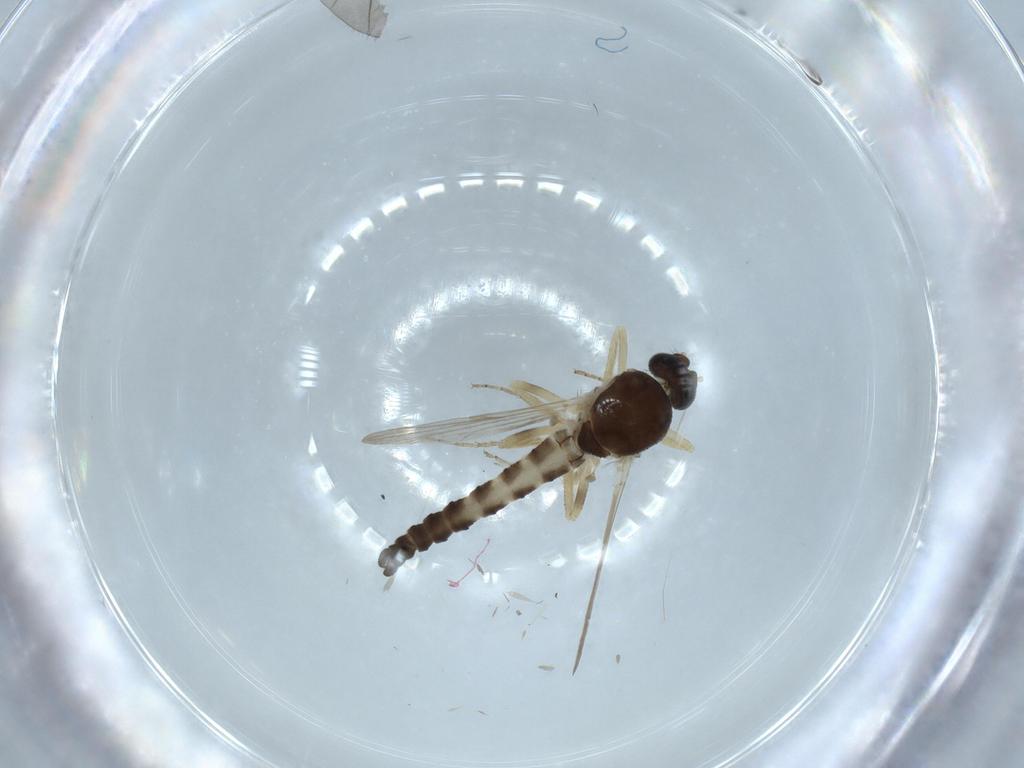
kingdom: Animalia
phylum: Arthropoda
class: Insecta
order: Diptera
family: Ceratopogonidae
